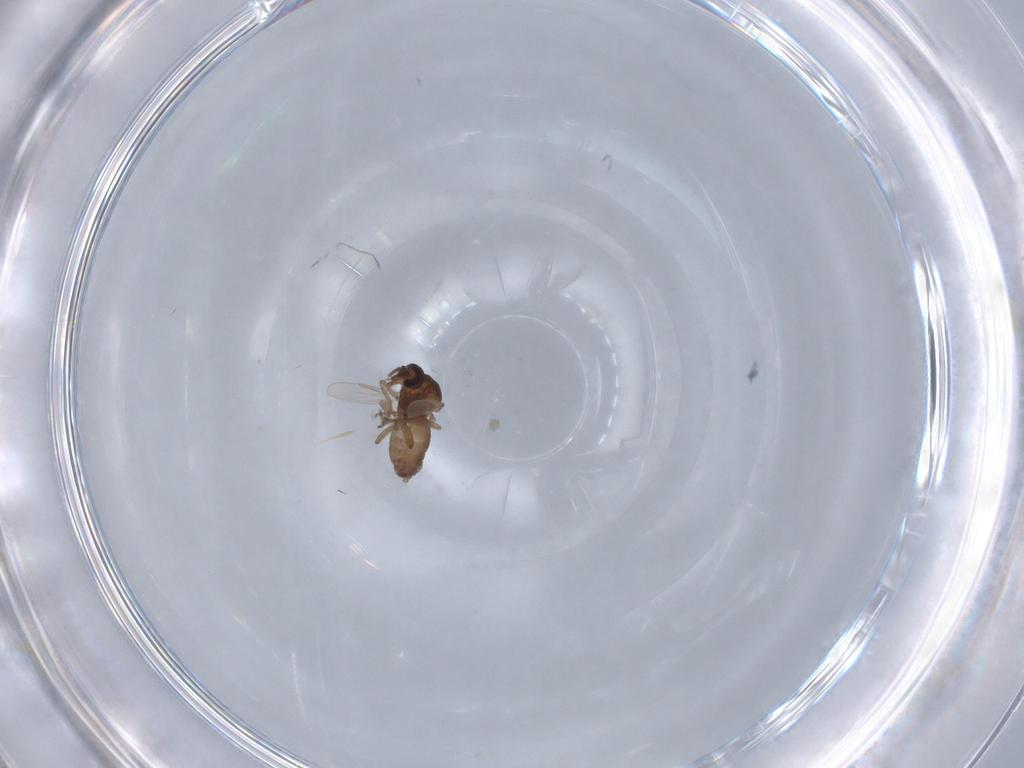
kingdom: Animalia
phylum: Arthropoda
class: Insecta
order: Diptera
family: Ceratopogonidae
